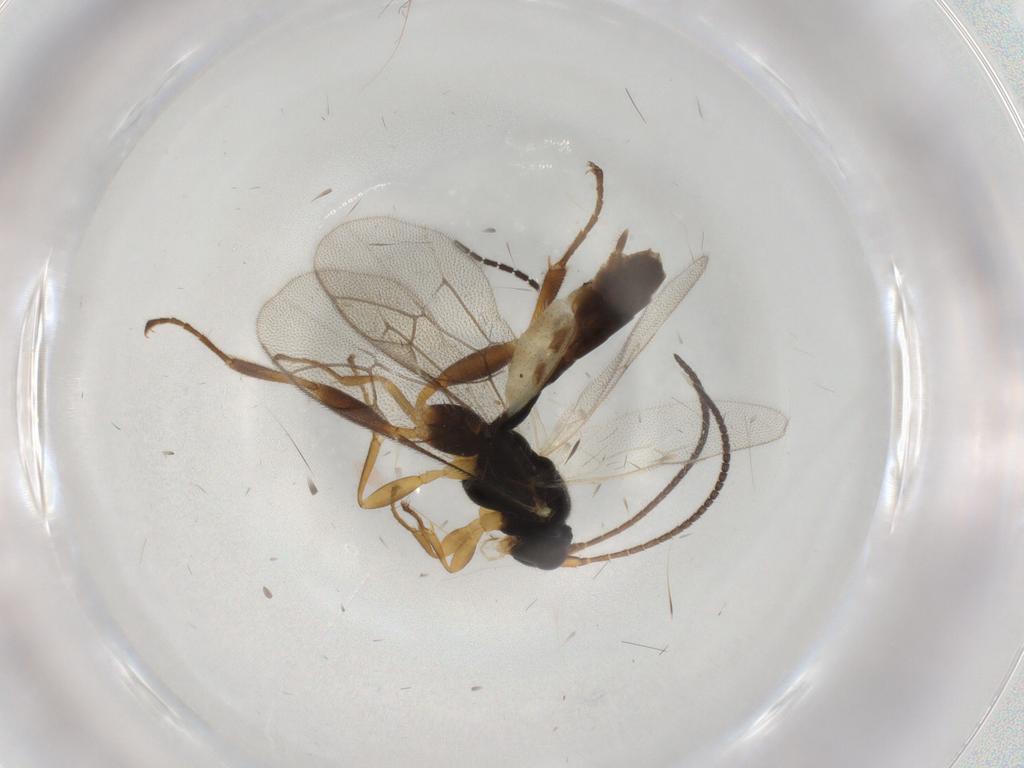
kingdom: Animalia
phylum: Arthropoda
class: Insecta
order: Hymenoptera
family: Ichneumonidae
